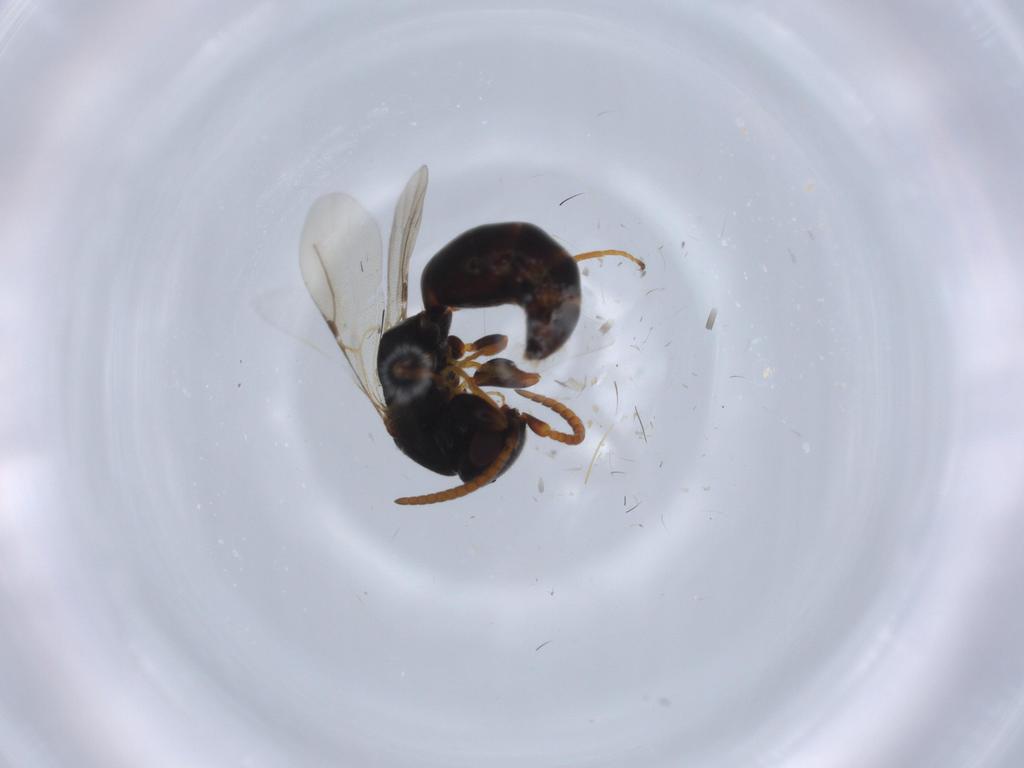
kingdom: Animalia
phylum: Arthropoda
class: Insecta
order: Hymenoptera
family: Bethylidae
